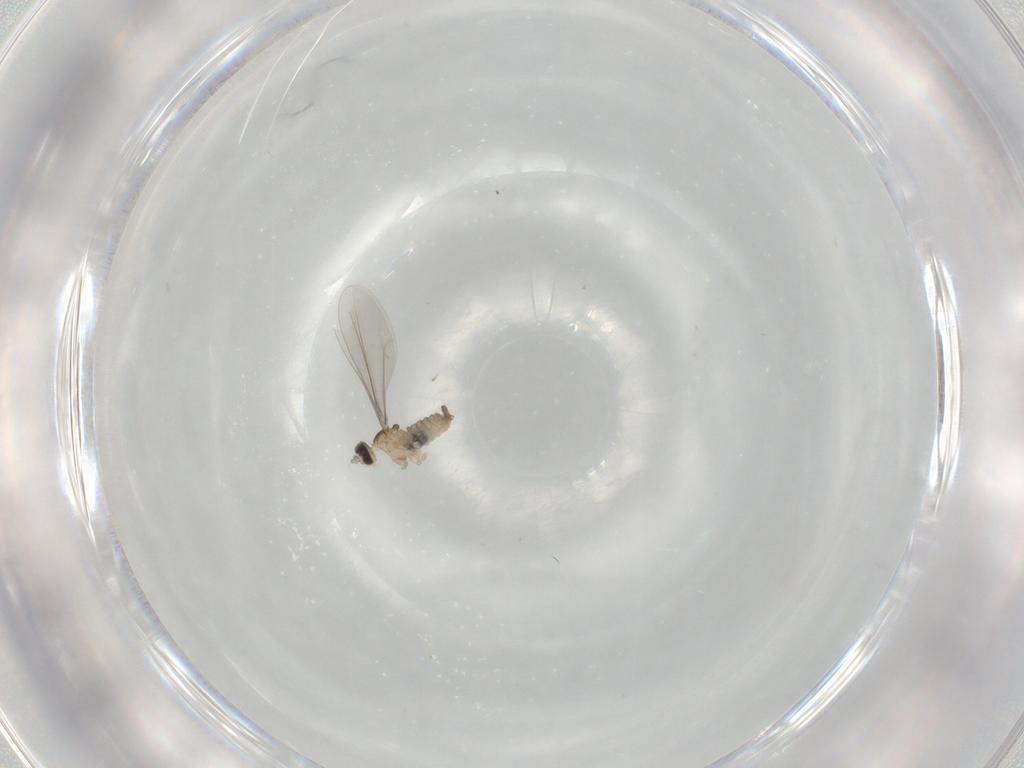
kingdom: Animalia
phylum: Arthropoda
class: Insecta
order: Diptera
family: Cecidomyiidae
